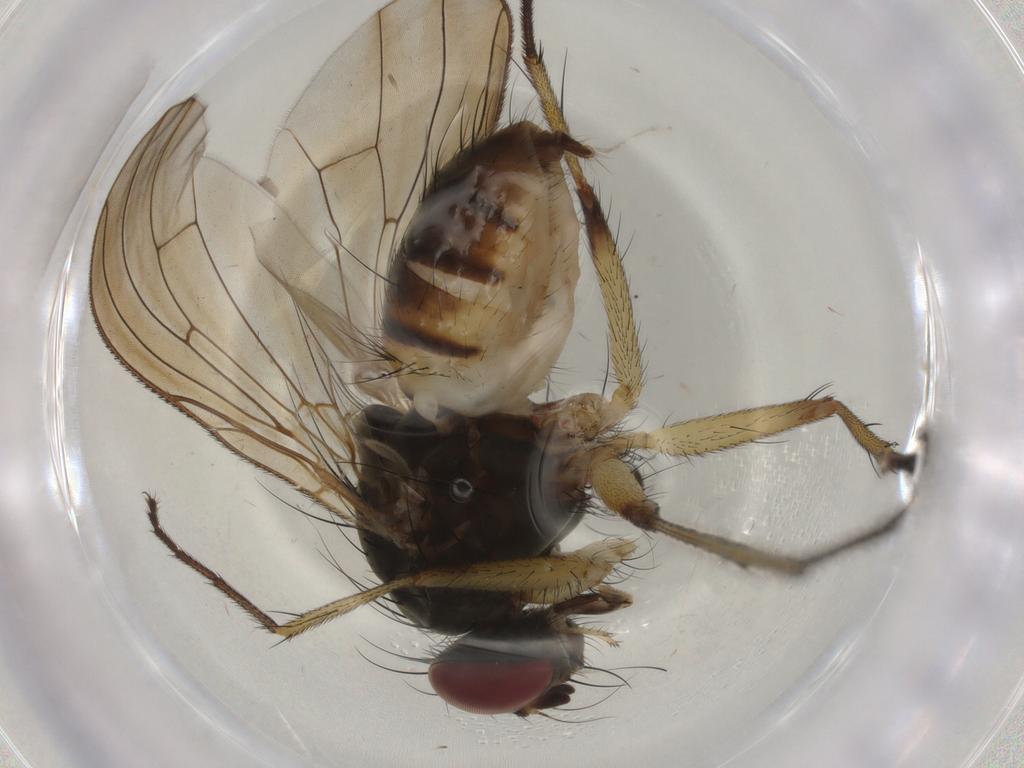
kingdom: Animalia
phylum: Arthropoda
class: Insecta
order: Diptera
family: Muscidae
